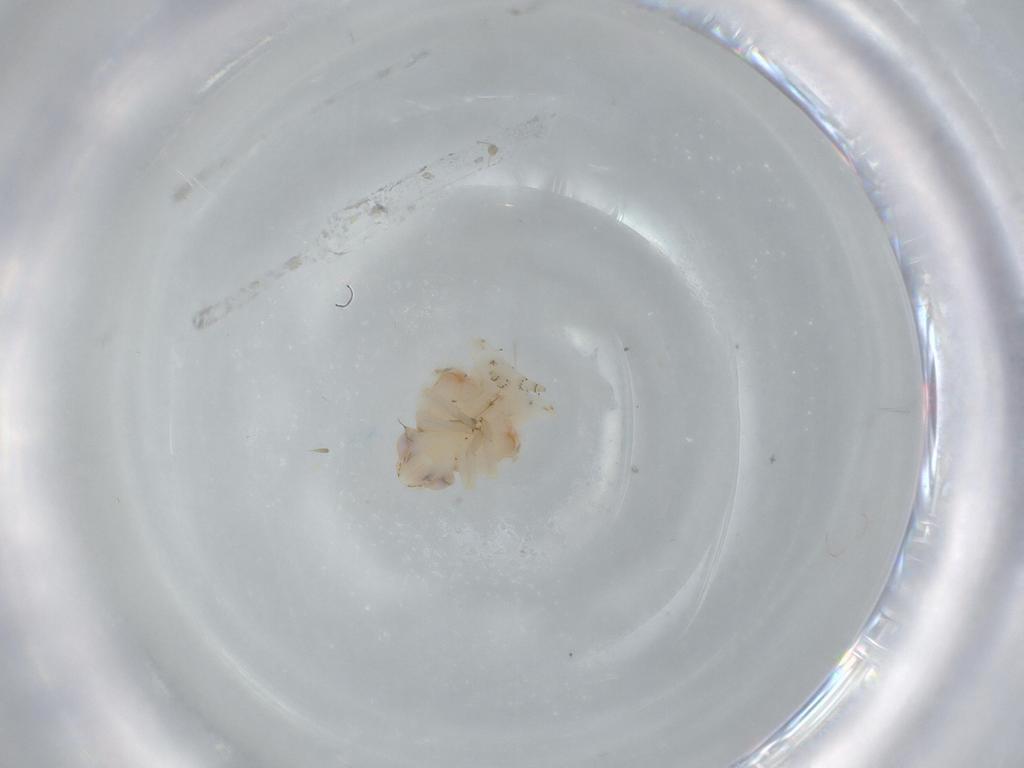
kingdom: Animalia
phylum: Arthropoda
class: Insecta
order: Hemiptera
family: Nogodinidae
